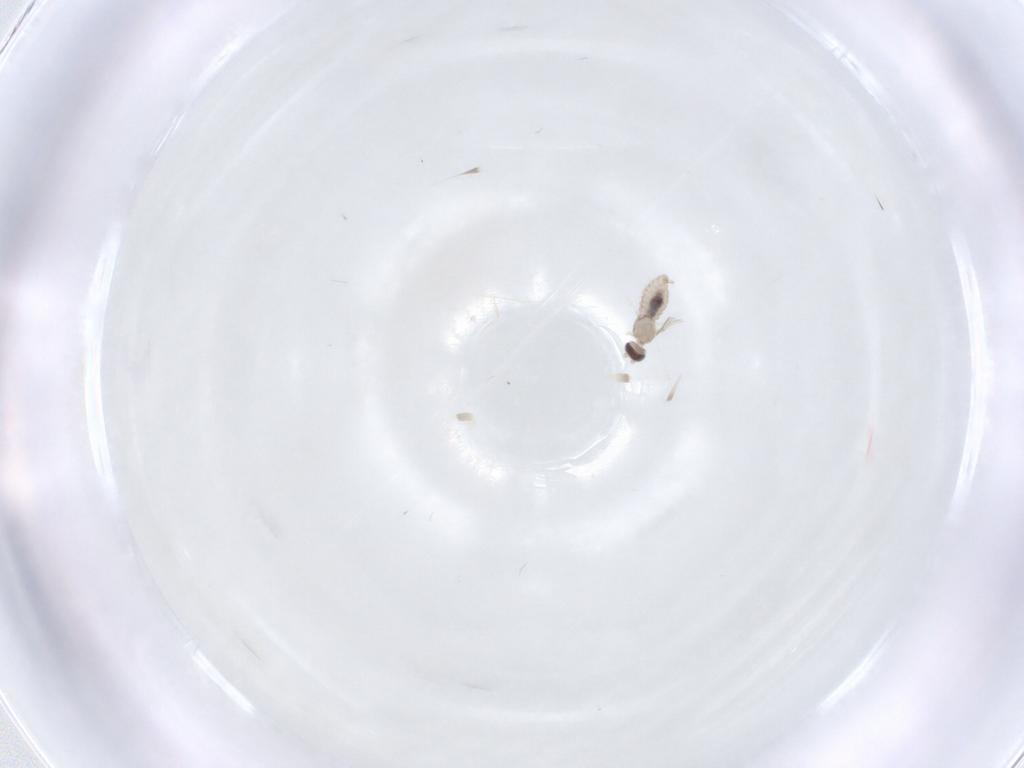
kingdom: Animalia
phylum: Arthropoda
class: Insecta
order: Diptera
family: Cecidomyiidae
